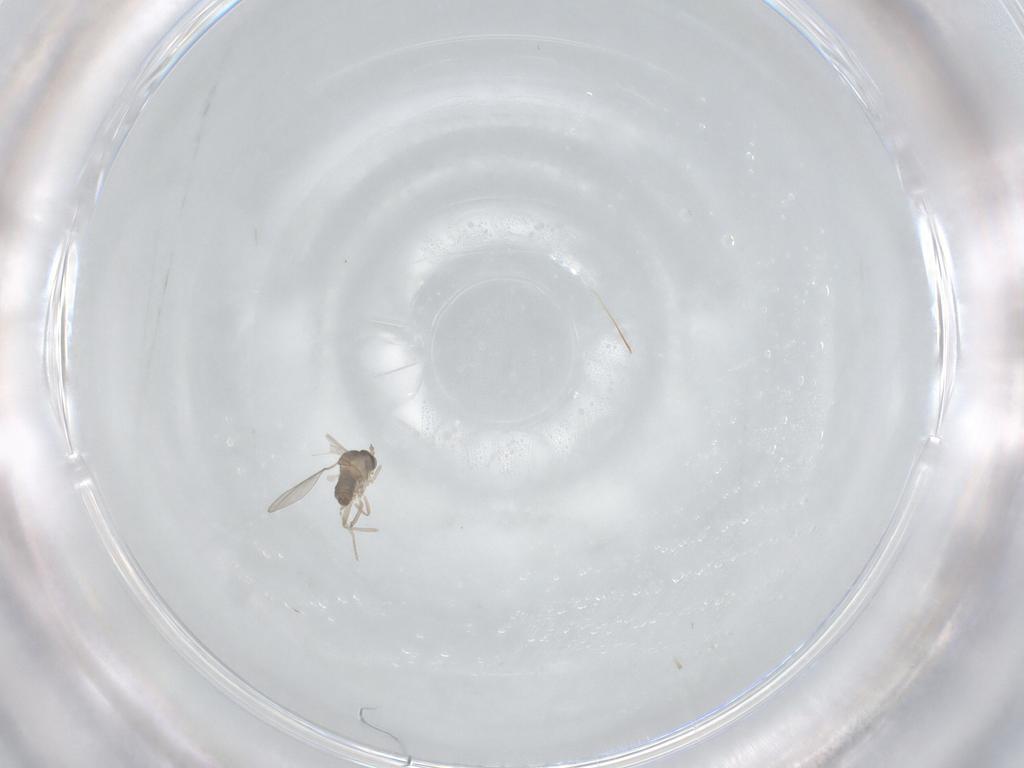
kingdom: Animalia
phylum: Arthropoda
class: Insecta
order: Diptera
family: Cecidomyiidae
